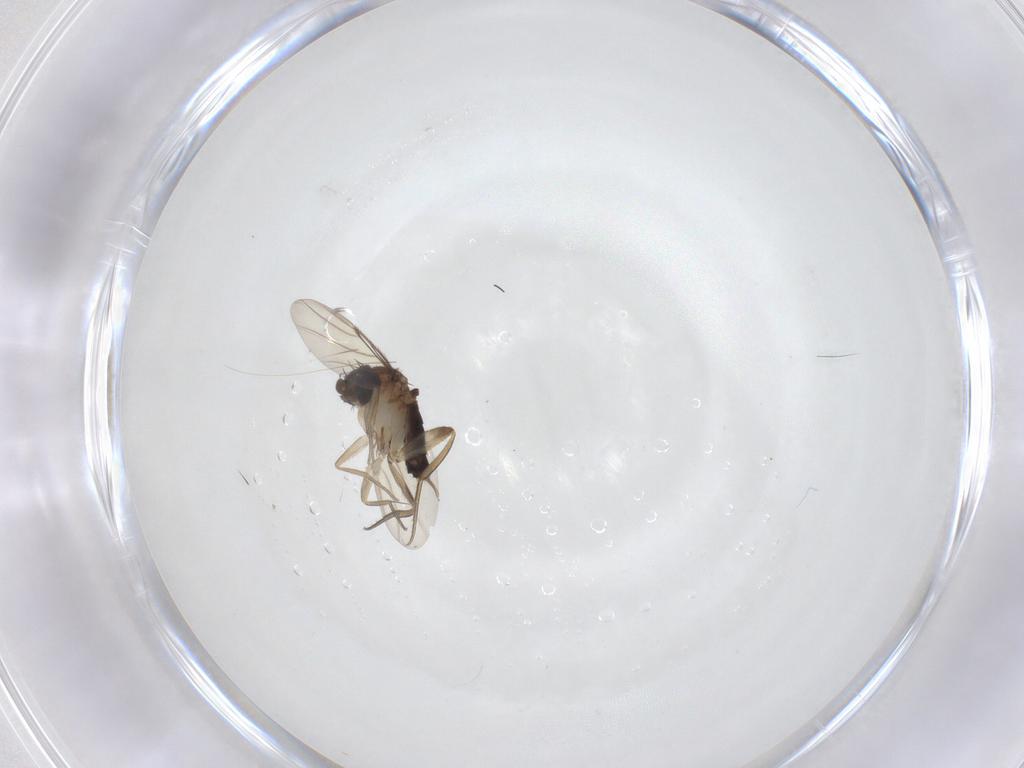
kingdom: Animalia
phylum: Arthropoda
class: Insecta
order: Diptera
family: Phoridae
